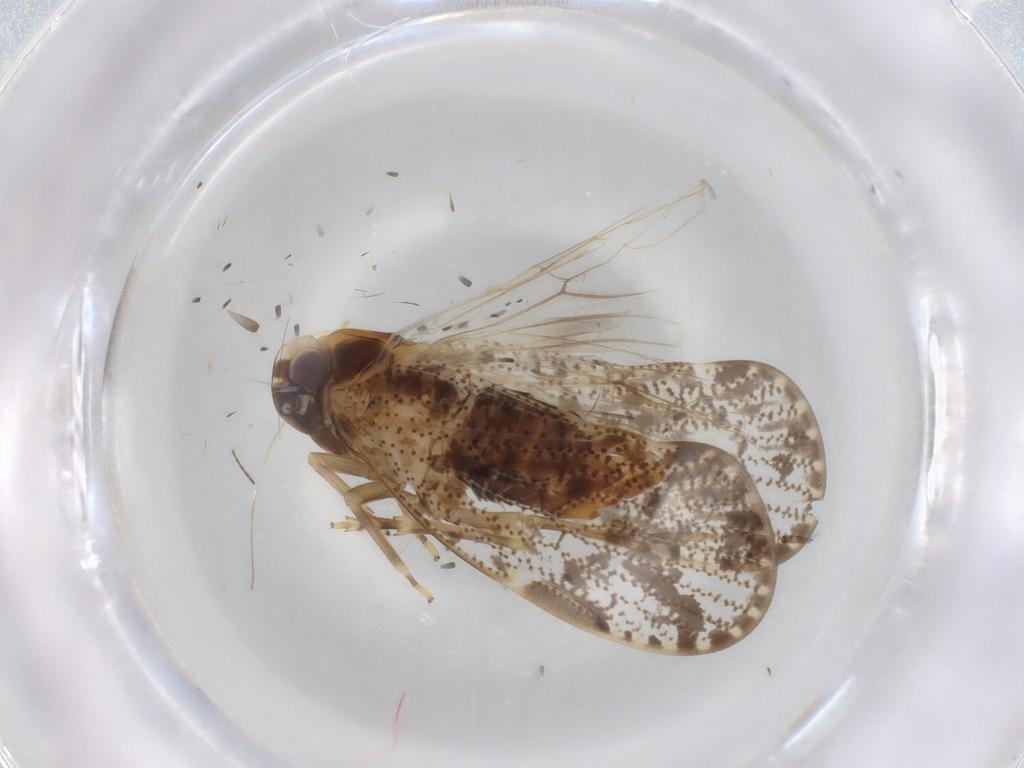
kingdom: Animalia
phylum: Arthropoda
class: Insecta
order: Hemiptera
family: Cixiidae
